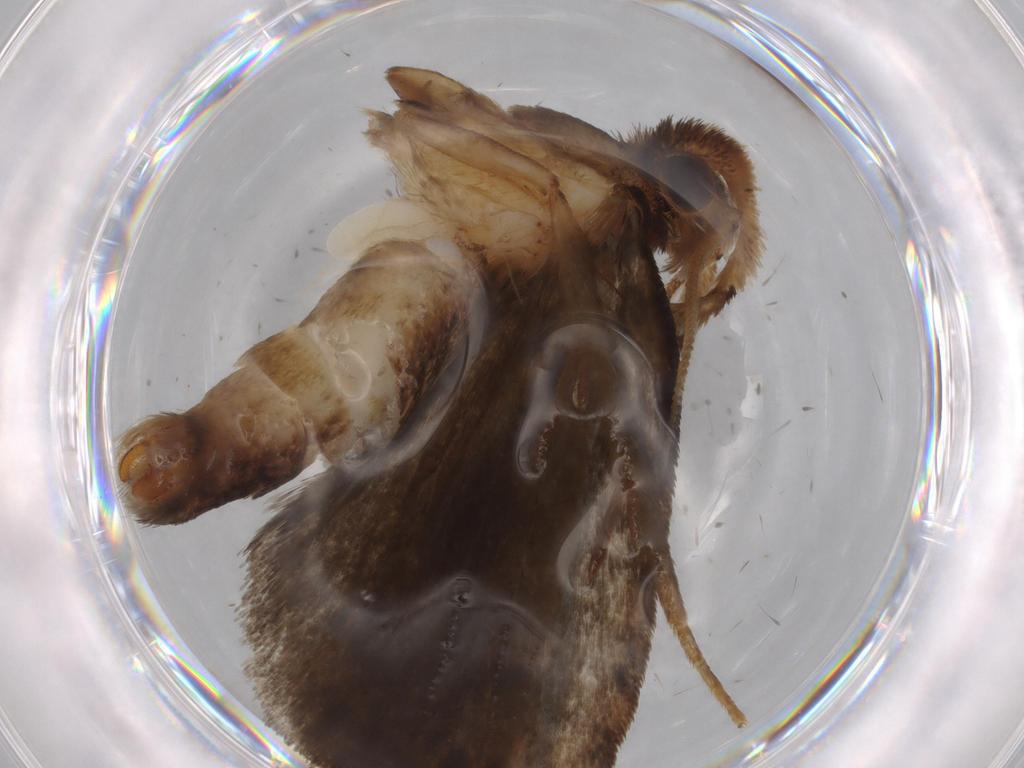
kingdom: Animalia
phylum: Arthropoda
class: Insecta
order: Lepidoptera
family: Tineidae
